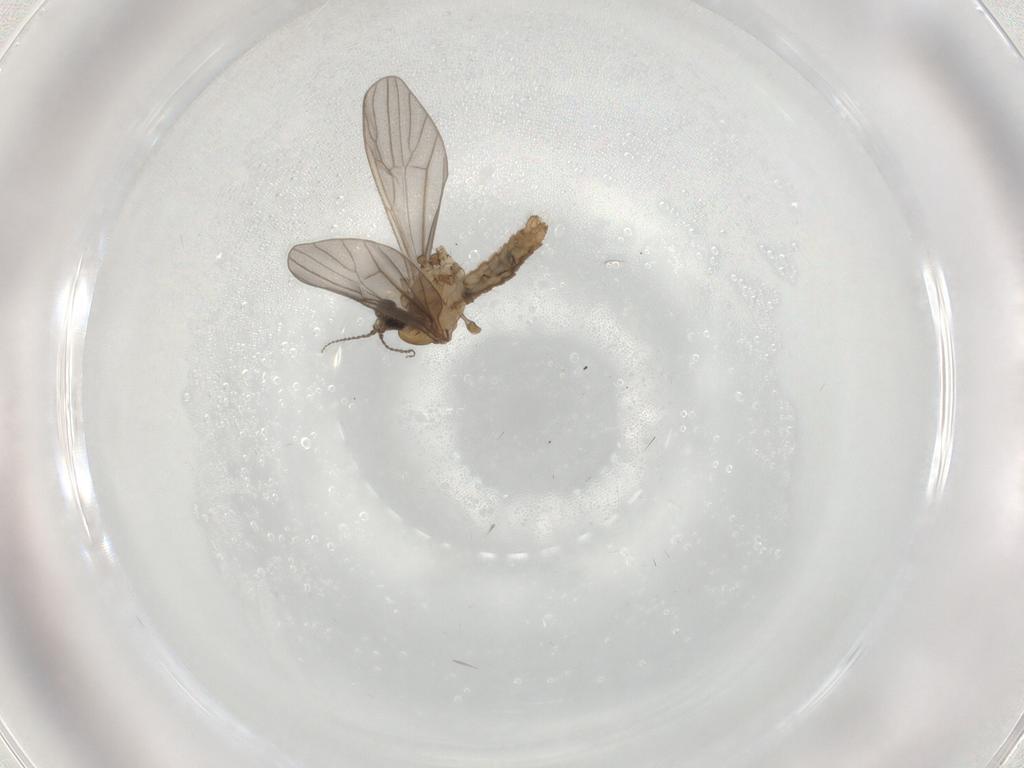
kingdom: Animalia
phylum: Arthropoda
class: Insecta
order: Diptera
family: Limoniidae
